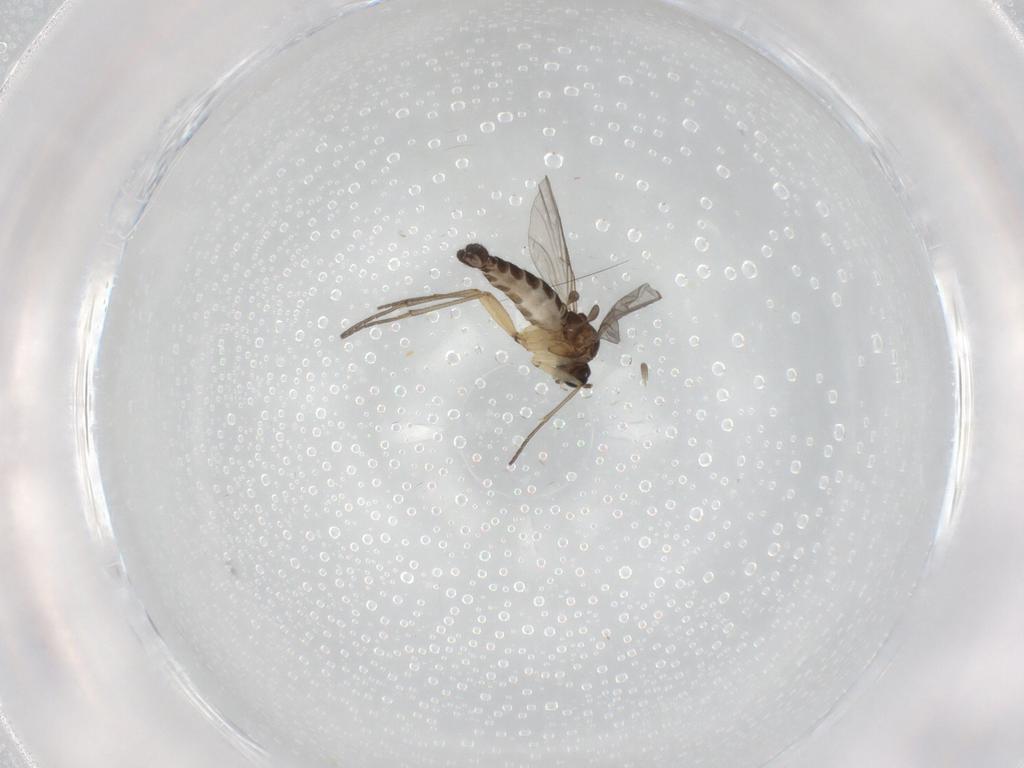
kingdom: Animalia
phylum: Arthropoda
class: Insecta
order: Diptera
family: Cecidomyiidae
